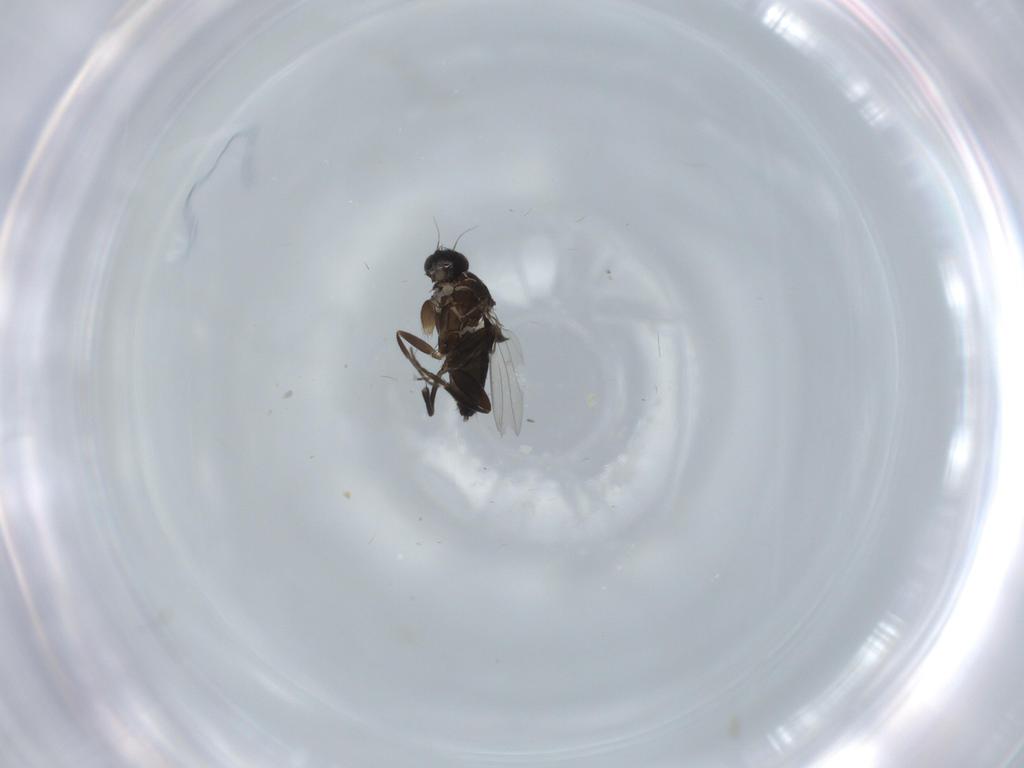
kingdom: Animalia
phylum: Arthropoda
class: Insecta
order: Diptera
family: Phoridae
